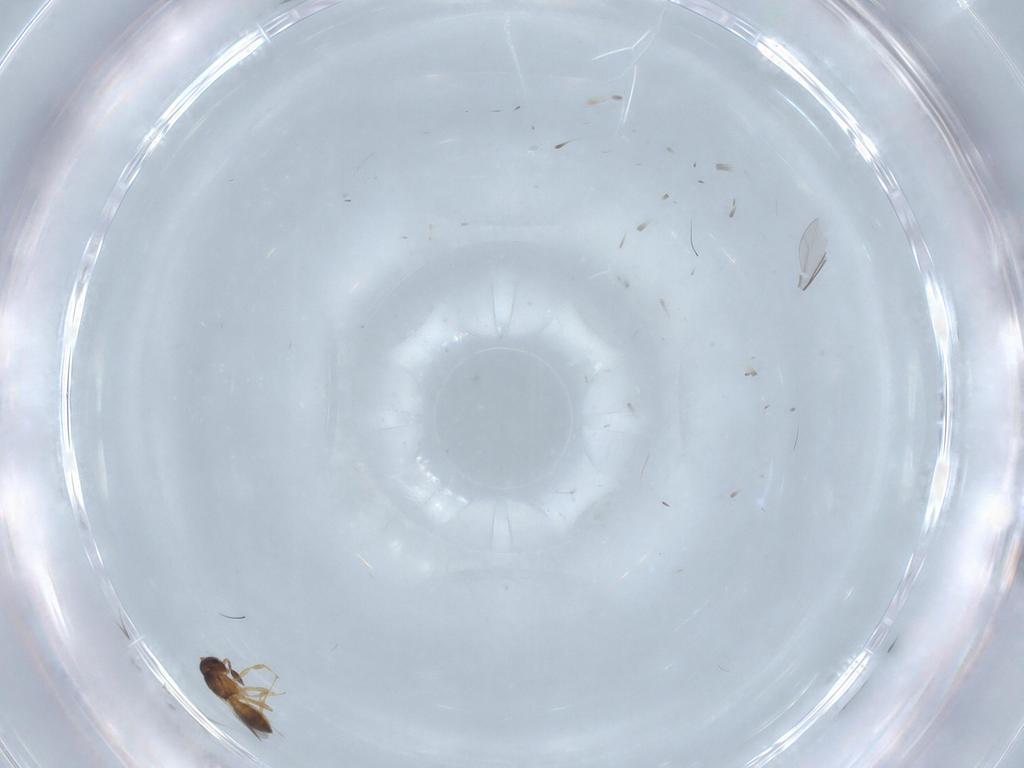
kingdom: Animalia
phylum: Arthropoda
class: Insecta
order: Hymenoptera
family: Scelionidae
